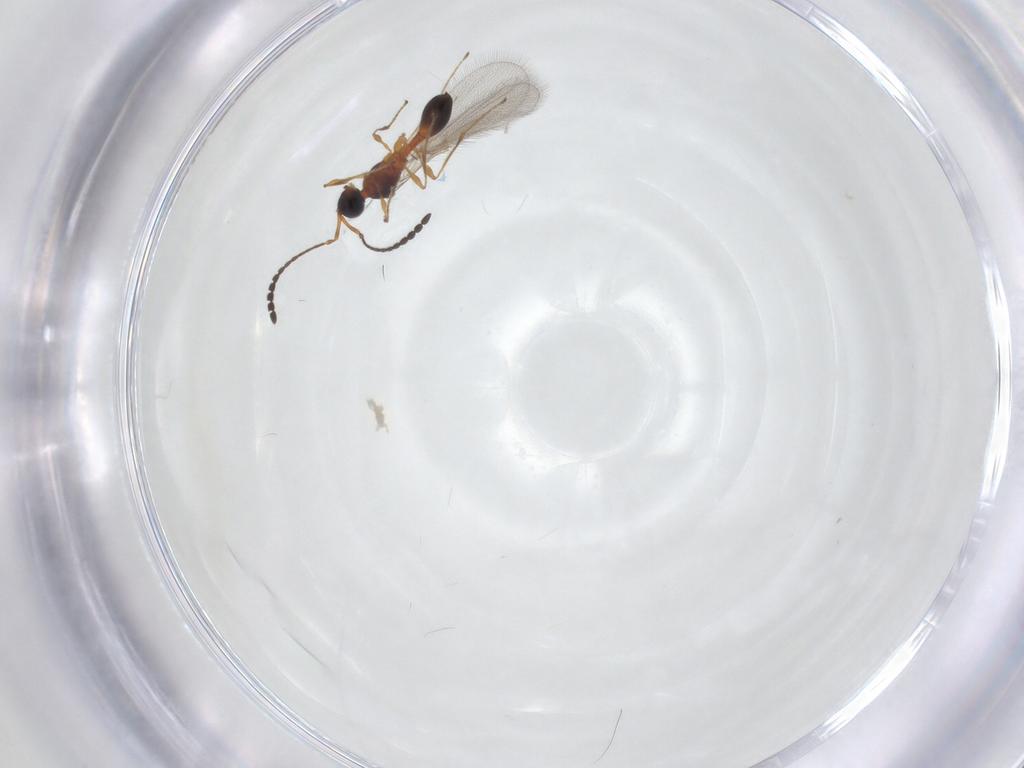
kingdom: Animalia
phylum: Arthropoda
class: Insecta
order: Hymenoptera
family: Diapriidae
